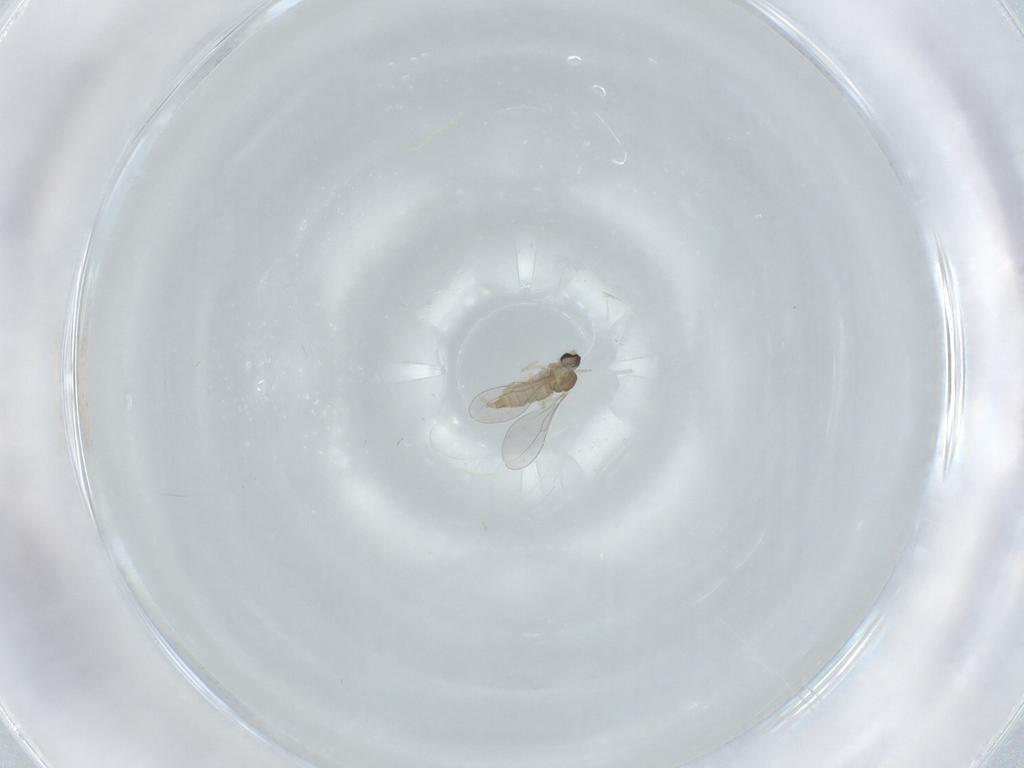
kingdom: Animalia
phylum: Arthropoda
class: Insecta
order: Diptera
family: Cecidomyiidae
